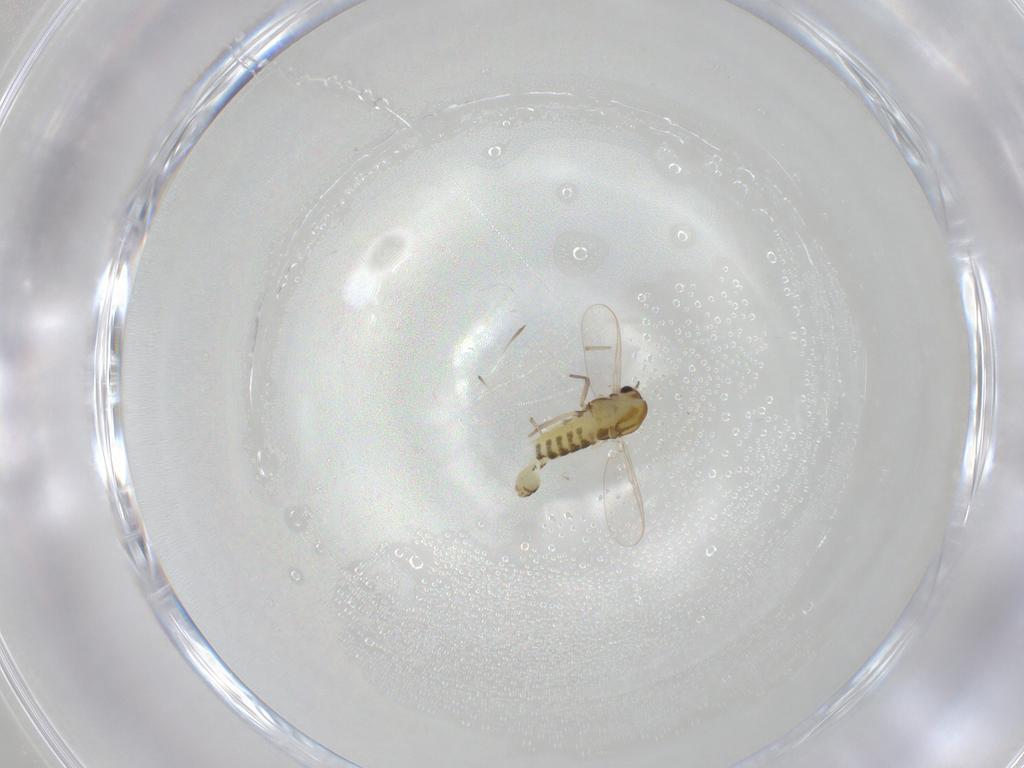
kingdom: Animalia
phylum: Arthropoda
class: Insecta
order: Diptera
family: Chironomidae
